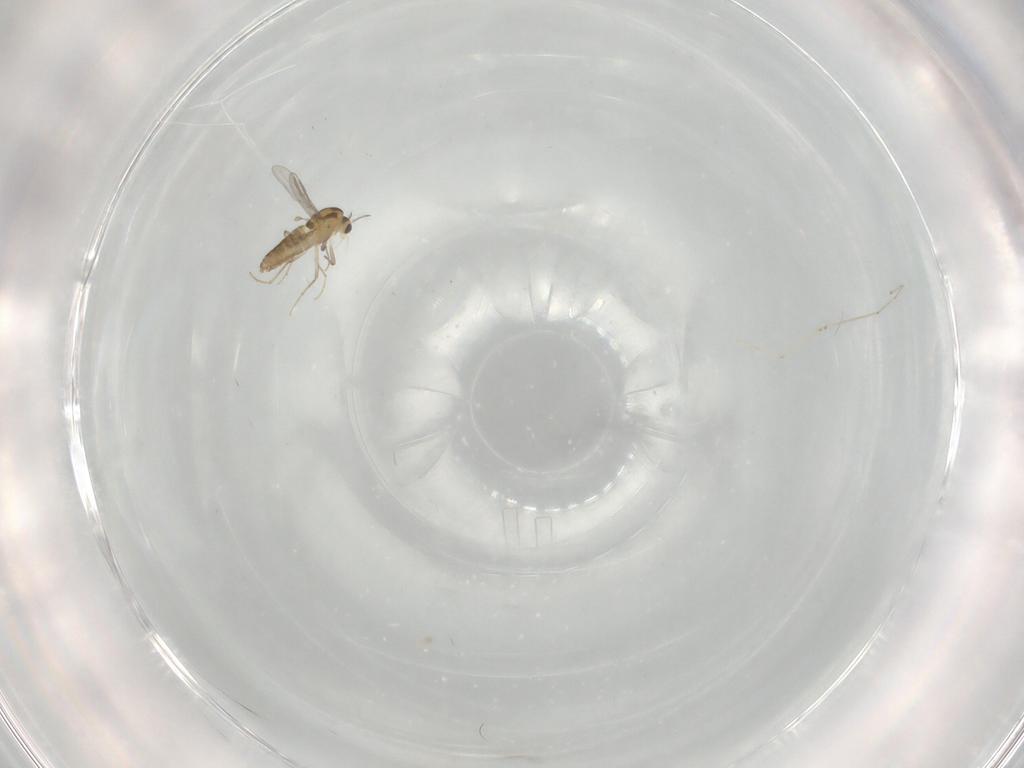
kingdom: Animalia
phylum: Arthropoda
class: Insecta
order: Diptera
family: Chironomidae
